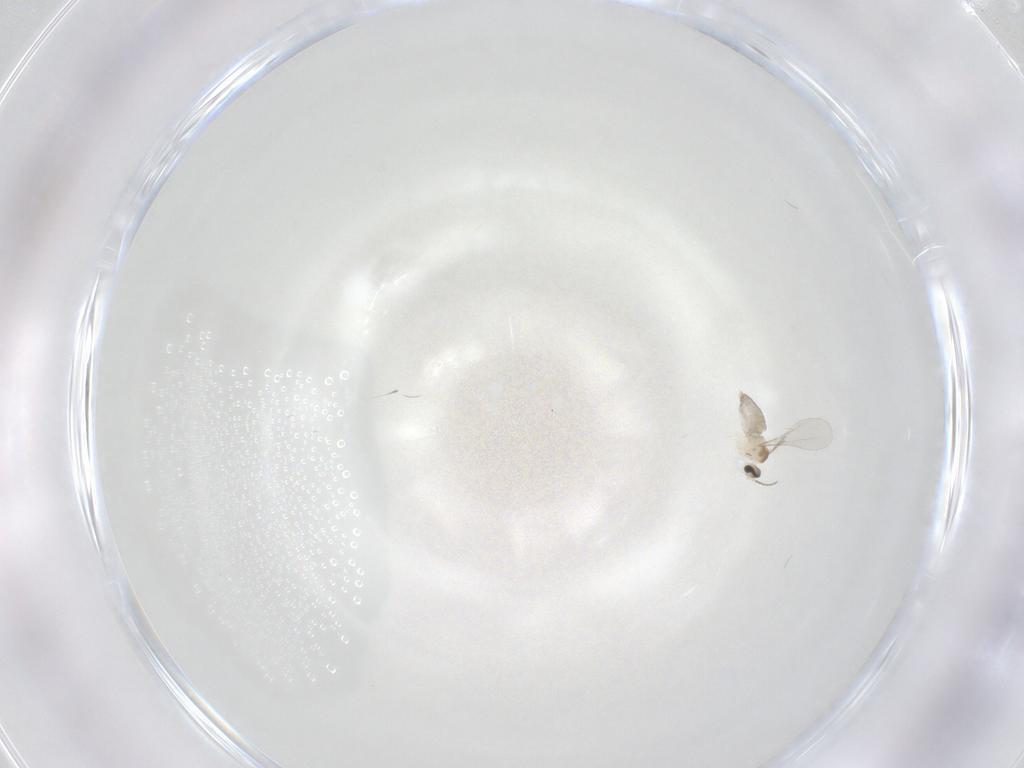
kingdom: Animalia
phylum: Arthropoda
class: Insecta
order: Diptera
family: Cecidomyiidae
